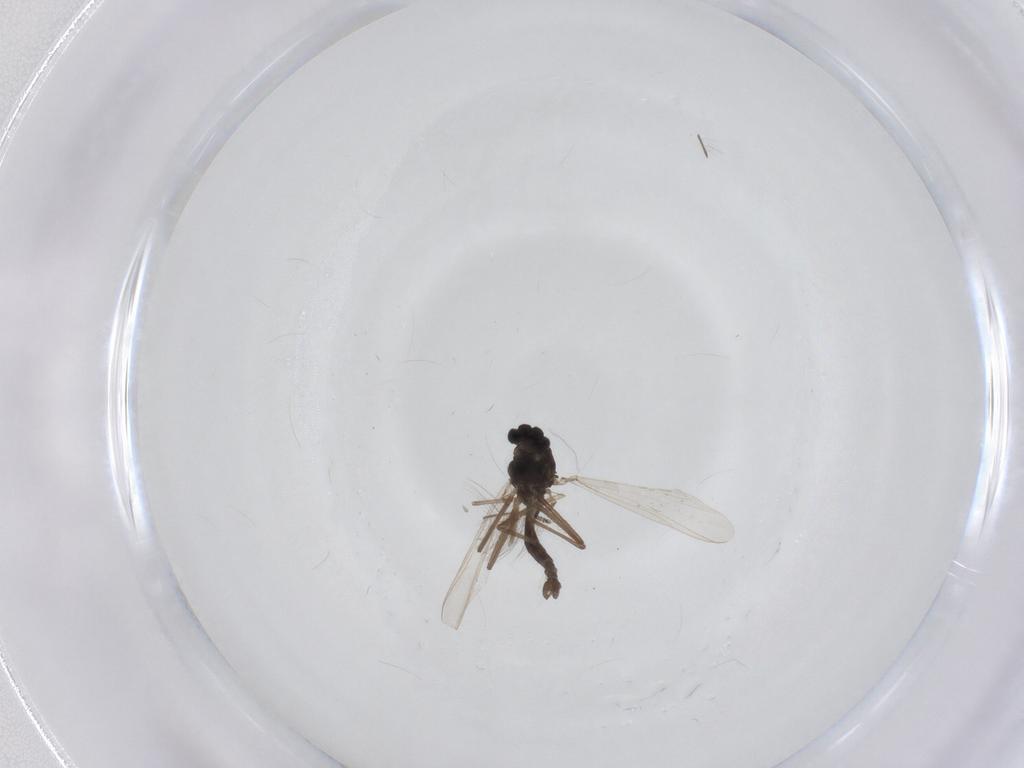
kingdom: Animalia
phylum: Arthropoda
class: Insecta
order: Diptera
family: Chironomidae
